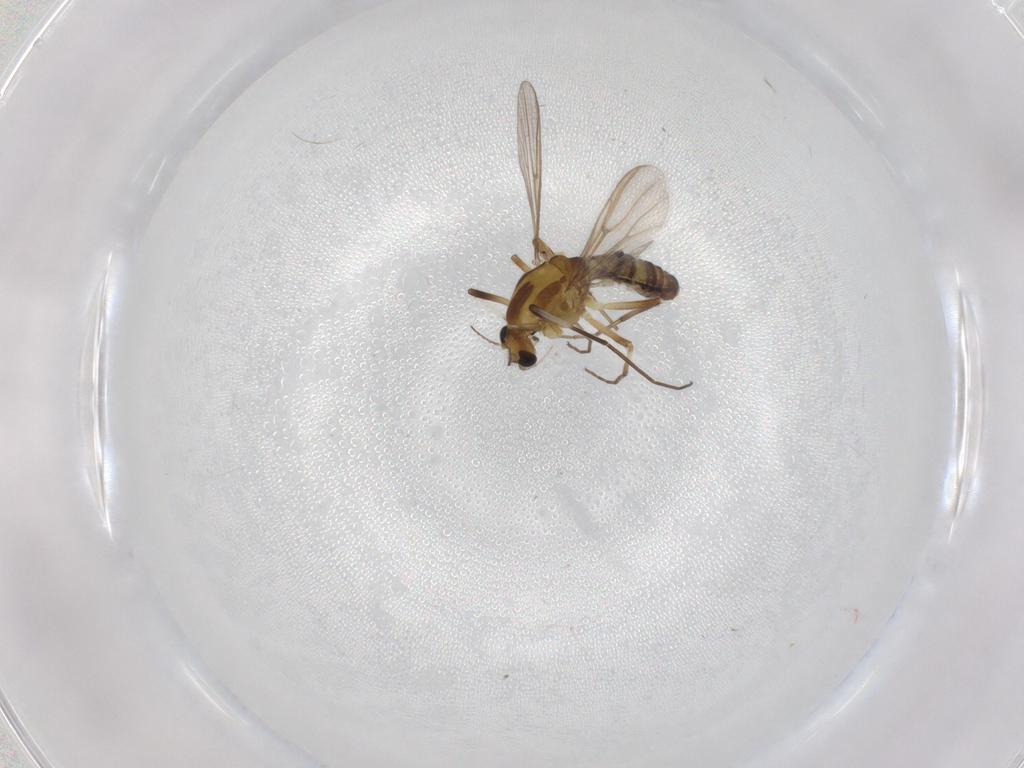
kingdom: Animalia
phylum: Arthropoda
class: Insecta
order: Diptera
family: Chironomidae
